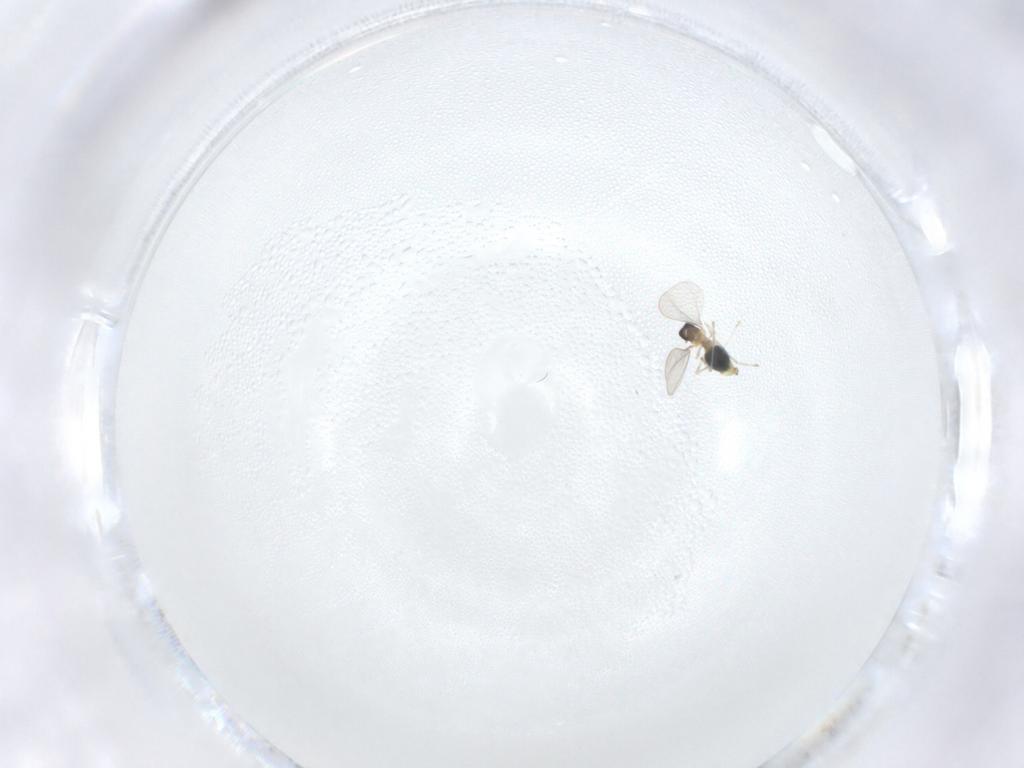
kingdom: Animalia
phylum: Arthropoda
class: Insecta
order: Diptera
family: Cecidomyiidae
